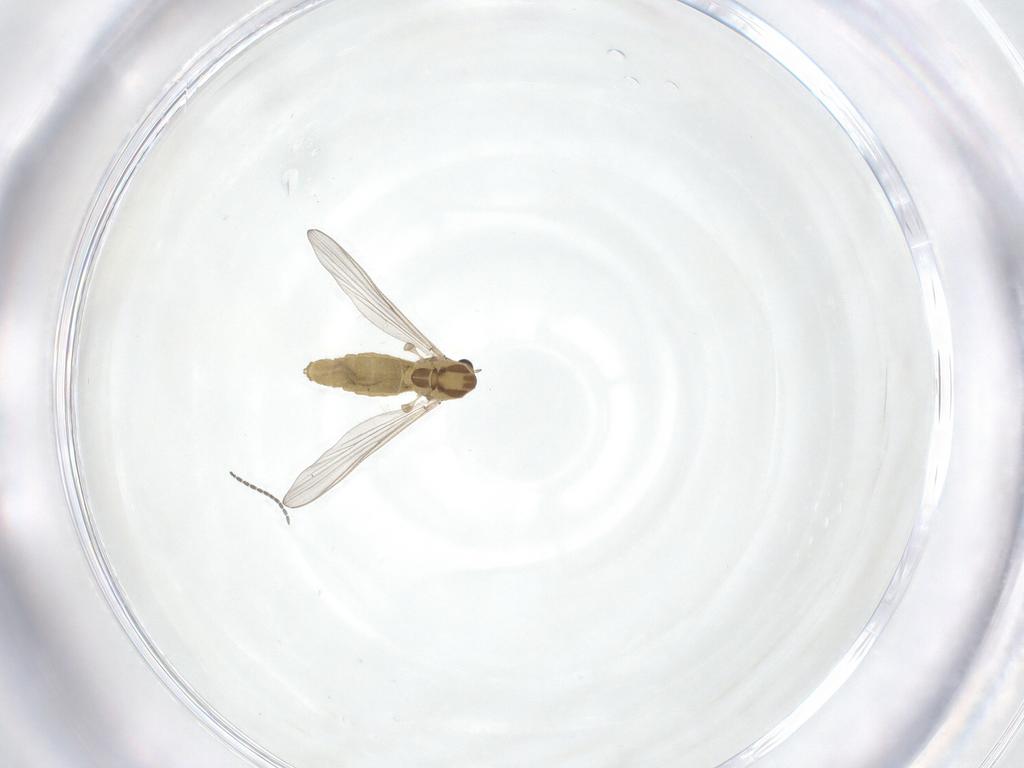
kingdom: Animalia
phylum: Arthropoda
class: Insecta
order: Diptera
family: Chironomidae
